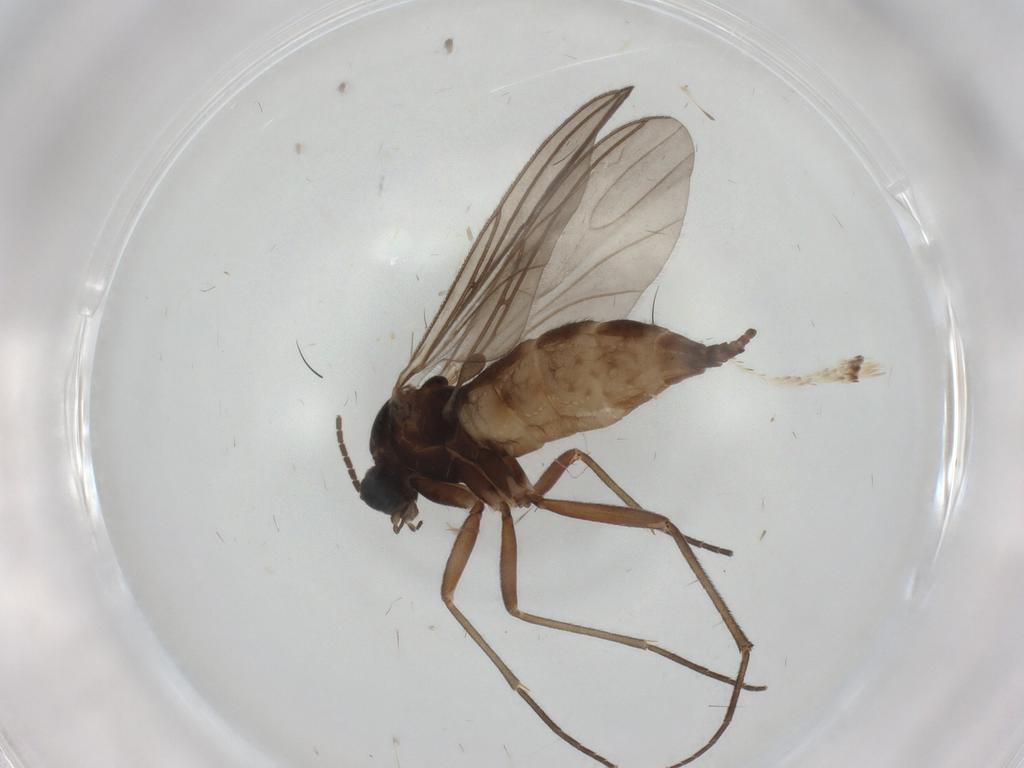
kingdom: Animalia
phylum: Arthropoda
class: Insecta
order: Diptera
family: Sciaridae
